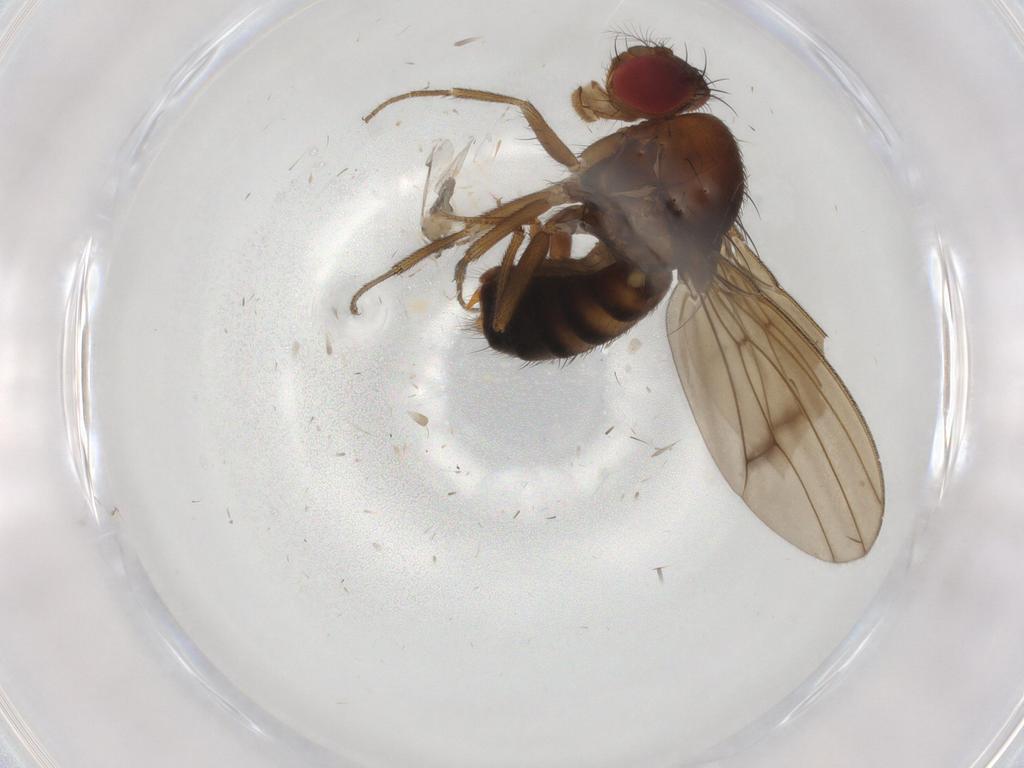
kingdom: Animalia
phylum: Arthropoda
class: Insecta
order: Diptera
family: Drosophilidae
